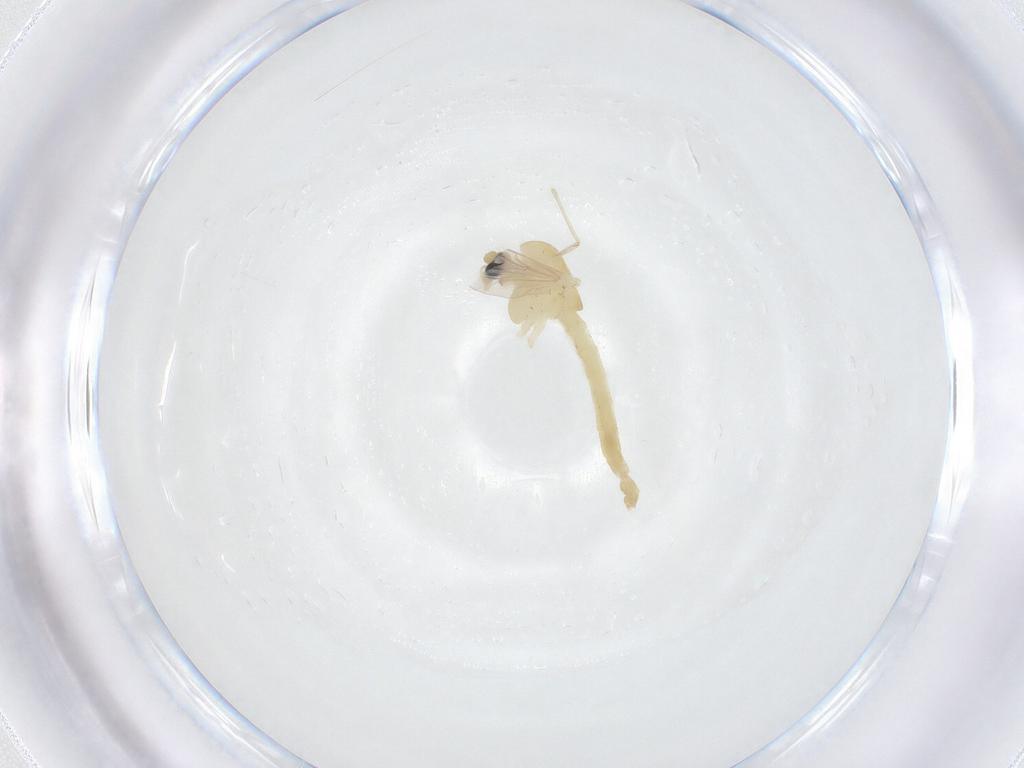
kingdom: Animalia
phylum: Arthropoda
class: Insecta
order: Diptera
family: Chironomidae
